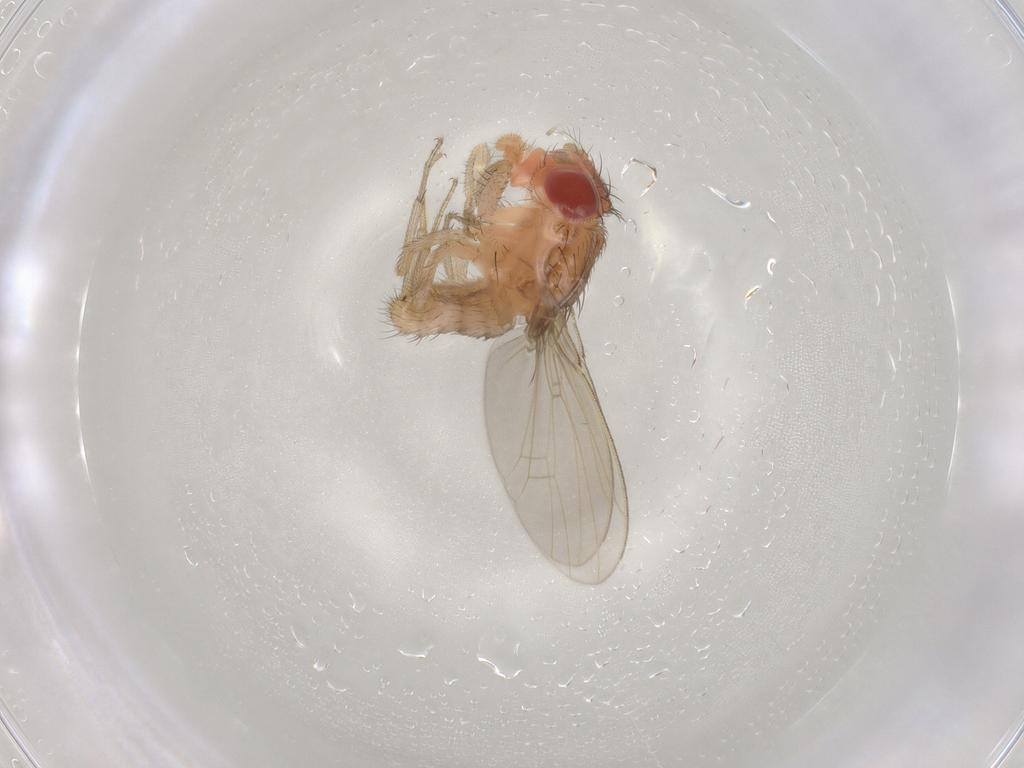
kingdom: Animalia
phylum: Arthropoda
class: Insecta
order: Diptera
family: Drosophilidae
